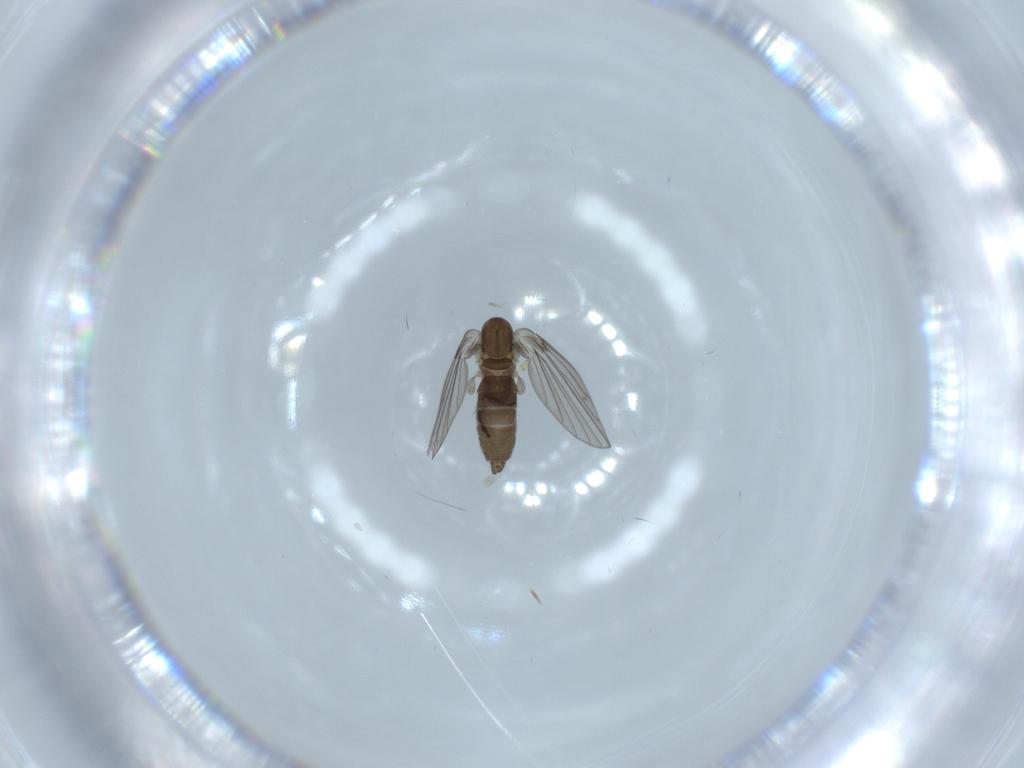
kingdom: Animalia
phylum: Arthropoda
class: Insecta
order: Diptera
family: Psychodidae
